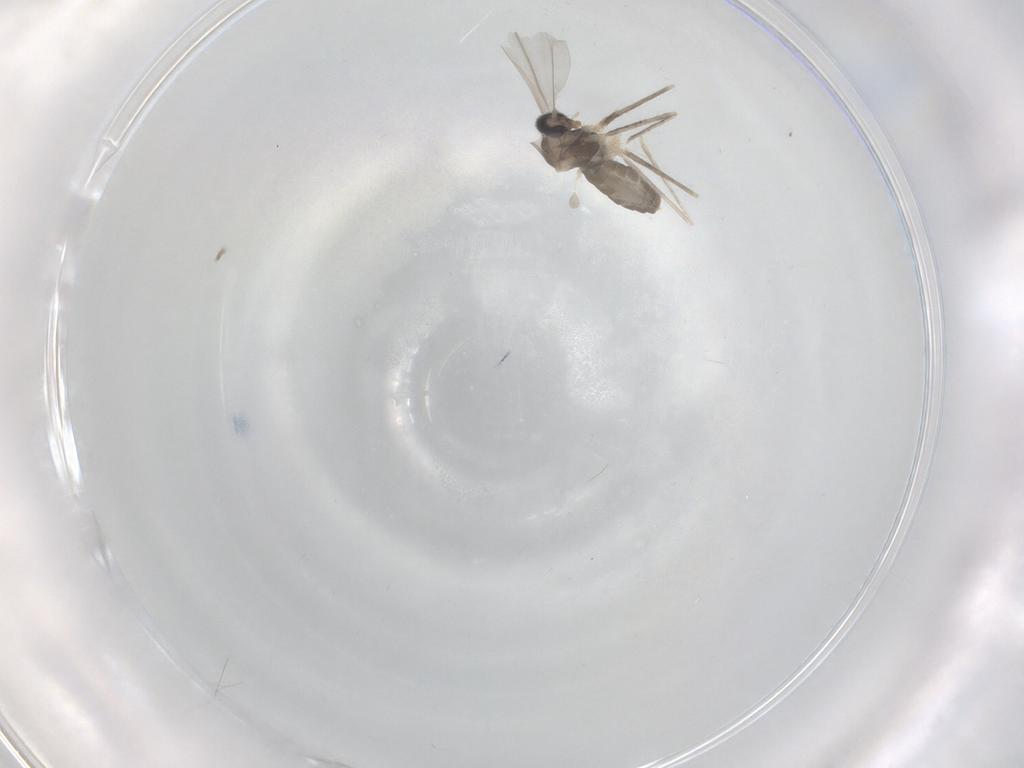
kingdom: Animalia
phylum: Arthropoda
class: Insecta
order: Diptera
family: Cecidomyiidae
